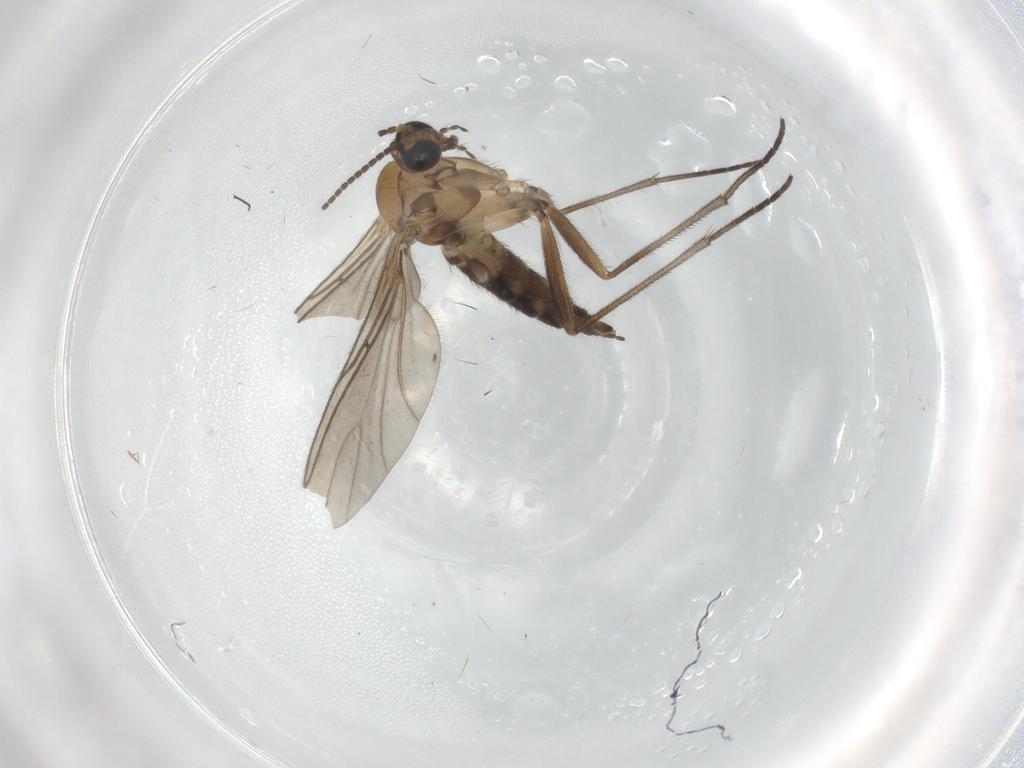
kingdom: Animalia
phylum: Arthropoda
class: Insecta
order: Diptera
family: Sciaridae
